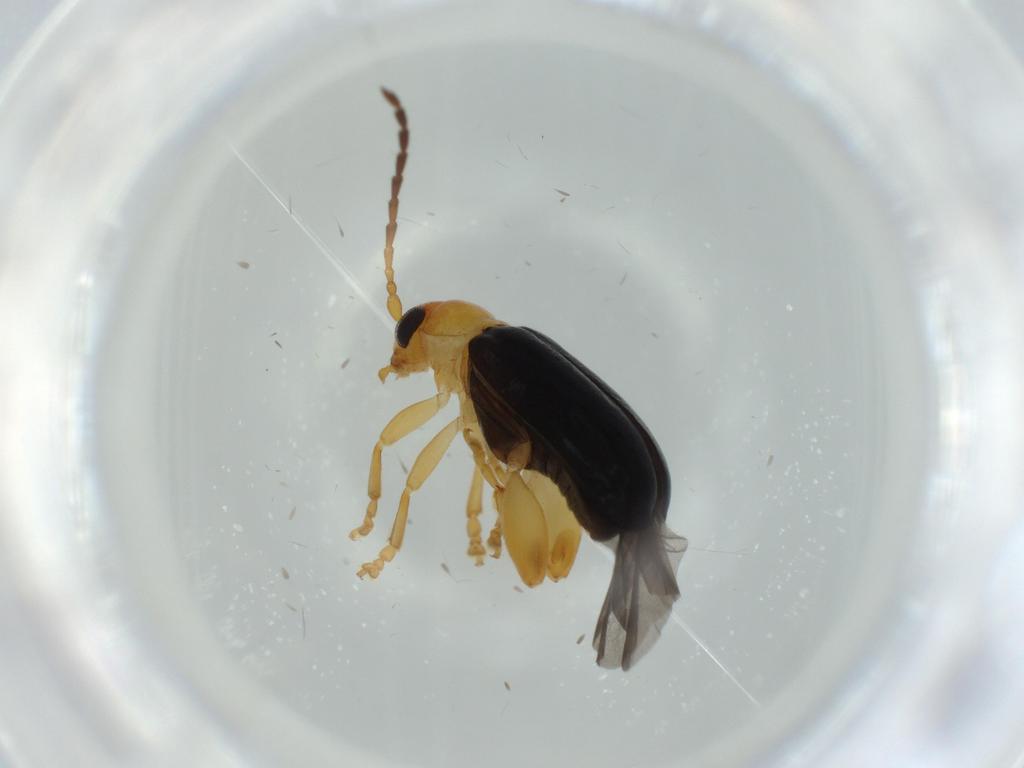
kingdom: Animalia
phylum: Arthropoda
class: Insecta
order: Coleoptera
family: Chrysomelidae
